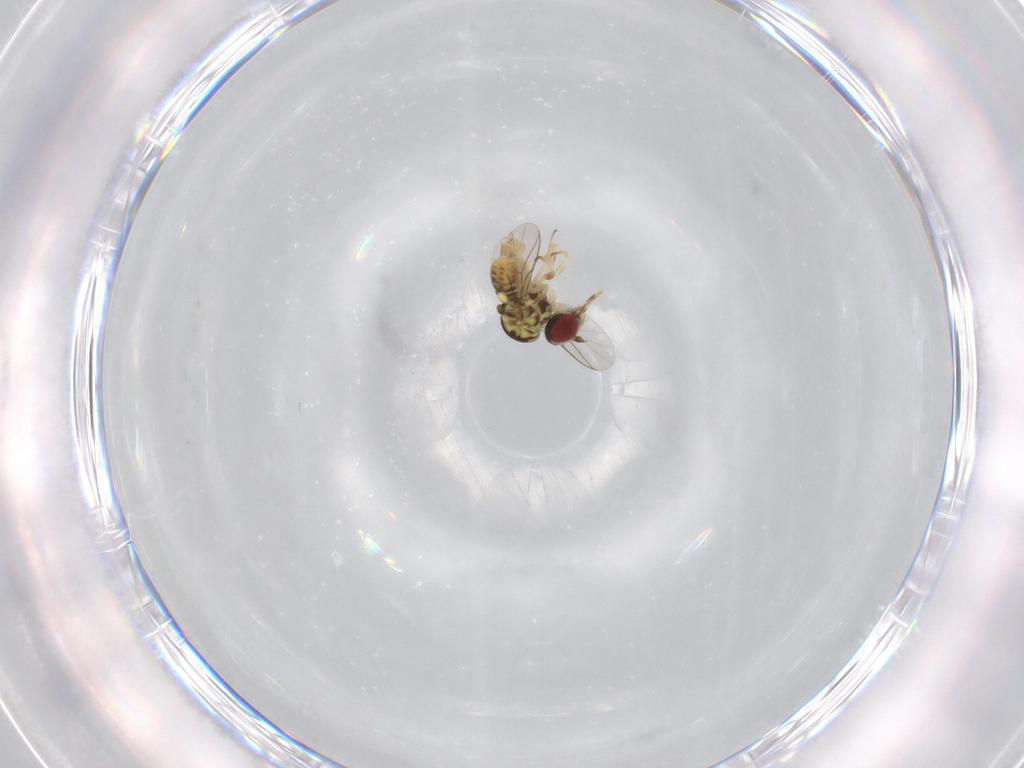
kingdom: Animalia
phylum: Arthropoda
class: Insecta
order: Diptera
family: Bombyliidae
